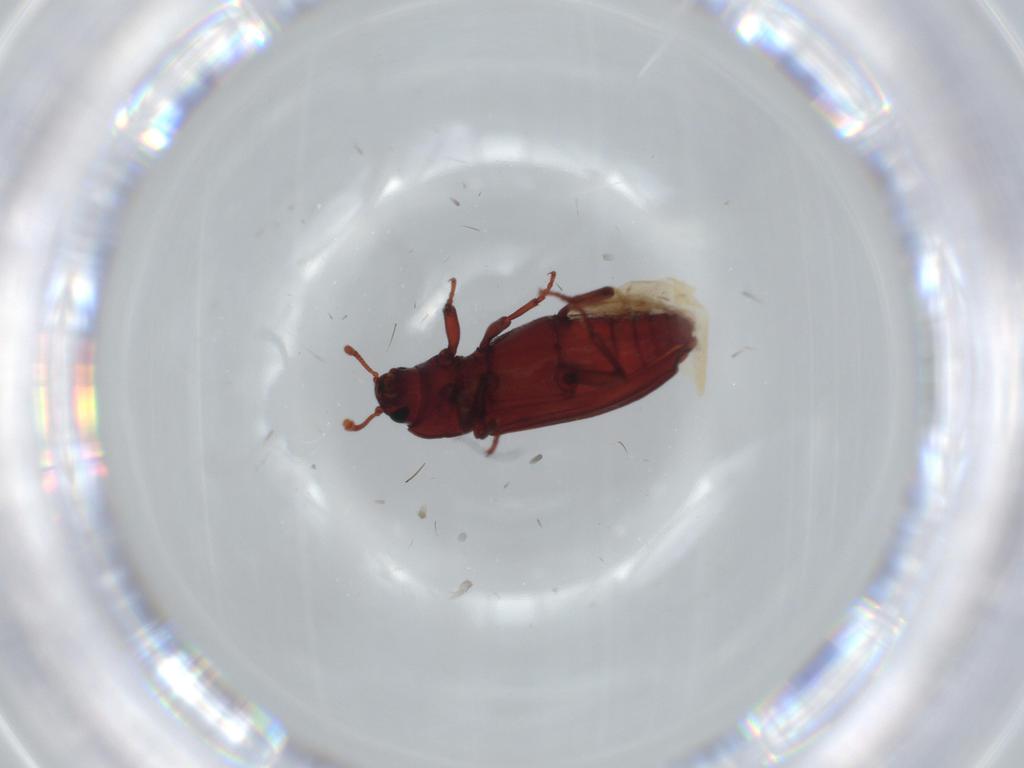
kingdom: Animalia
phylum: Arthropoda
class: Insecta
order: Coleoptera
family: Bothrideridae
